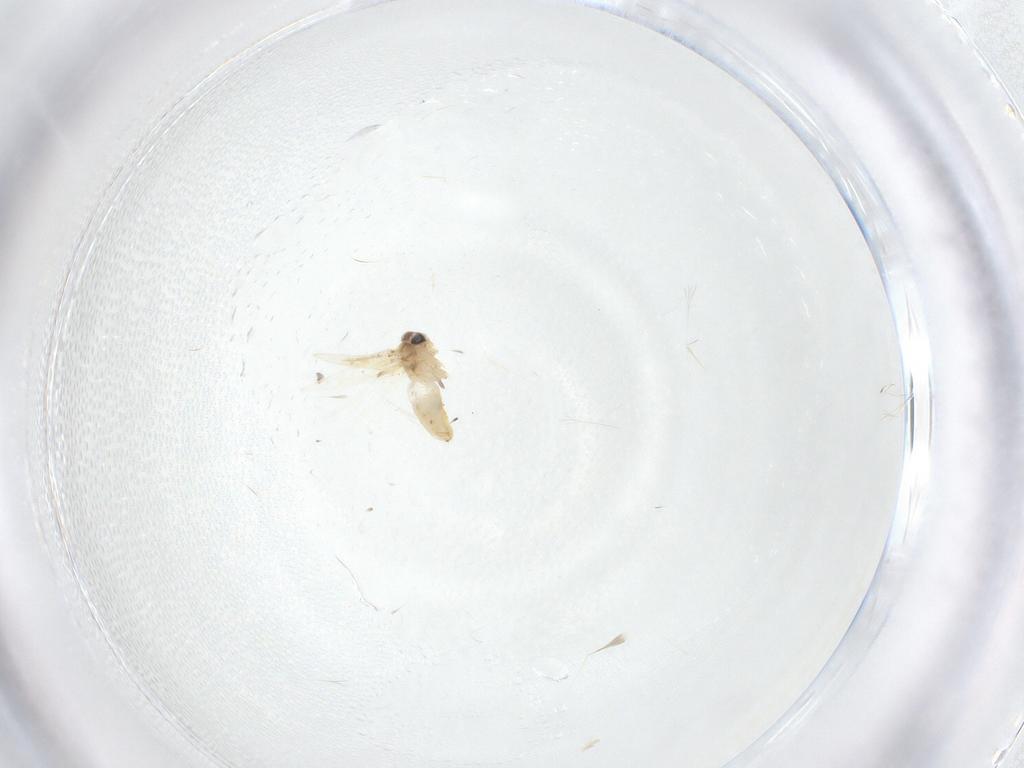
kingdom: Animalia
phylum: Arthropoda
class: Insecta
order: Lepidoptera
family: Crambidae
